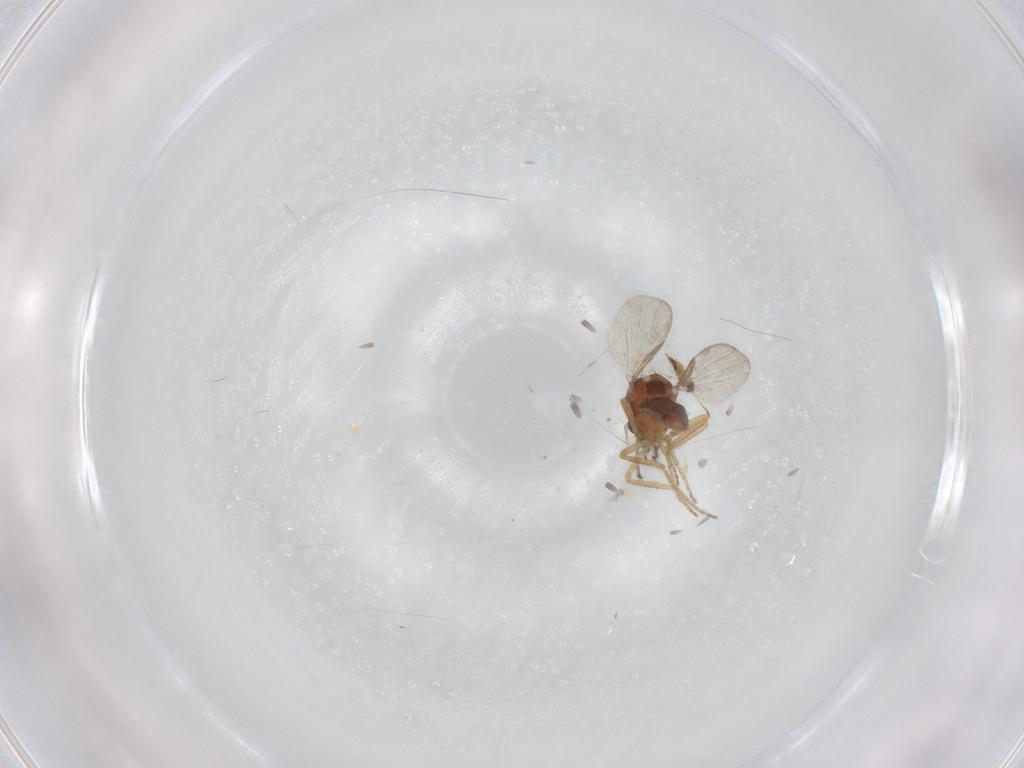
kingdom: Animalia
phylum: Arthropoda
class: Insecta
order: Diptera
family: Ceratopogonidae
